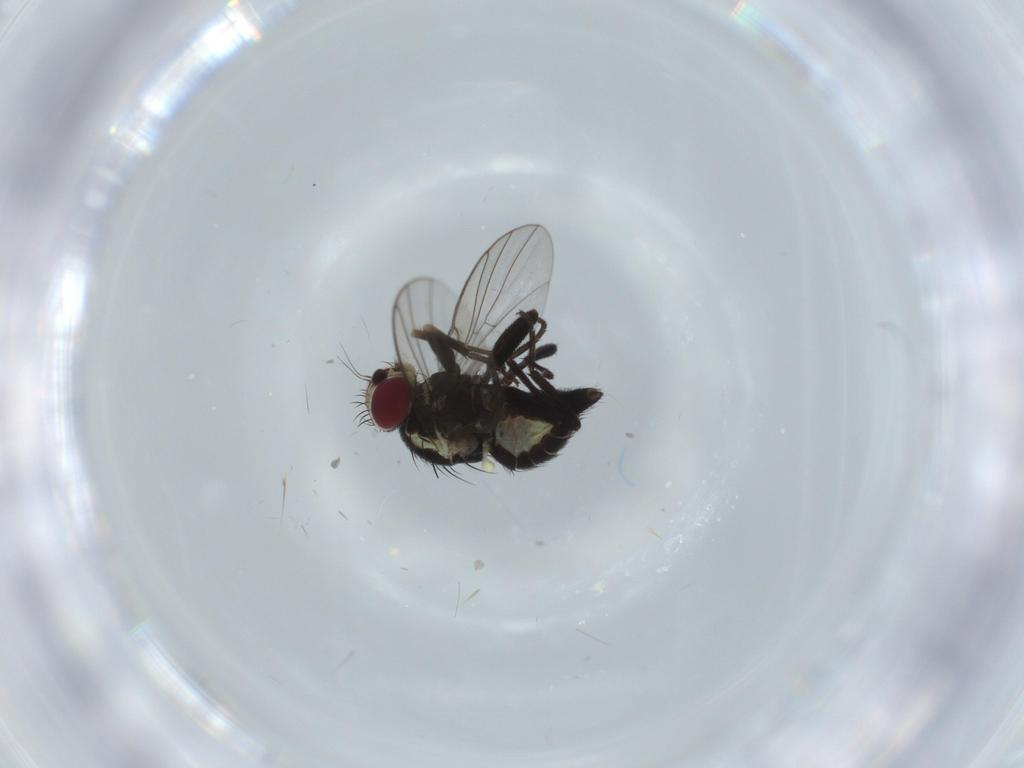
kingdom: Animalia
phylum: Arthropoda
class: Insecta
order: Diptera
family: Agromyzidae
